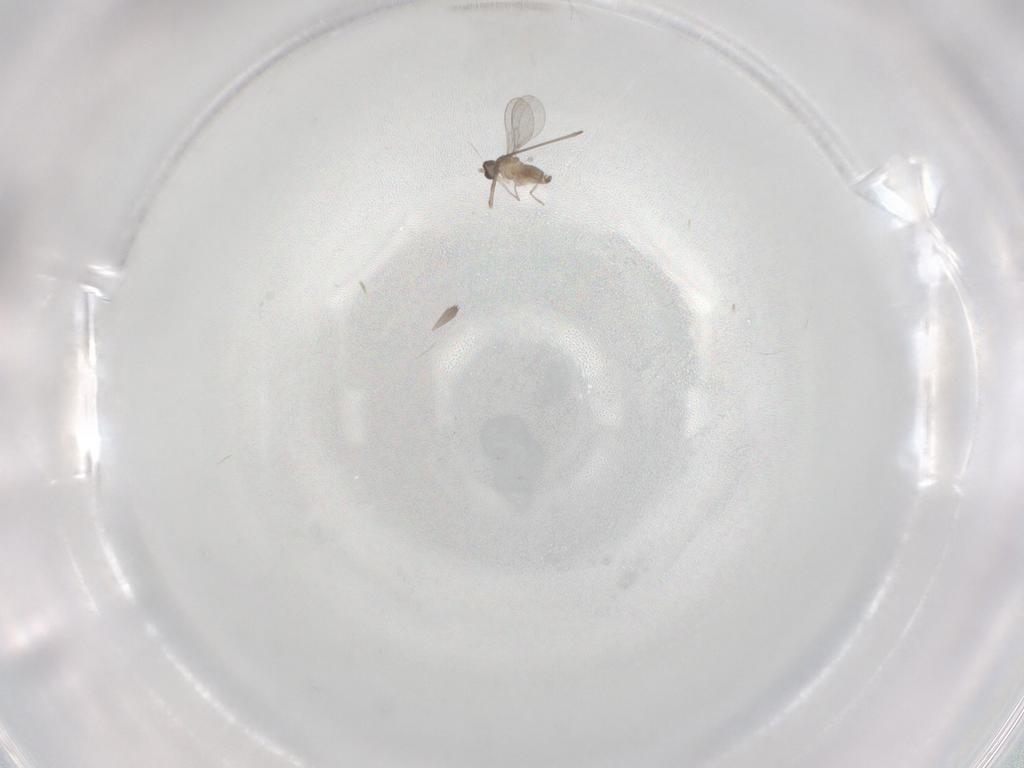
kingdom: Animalia
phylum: Arthropoda
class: Insecta
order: Diptera
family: Cecidomyiidae
